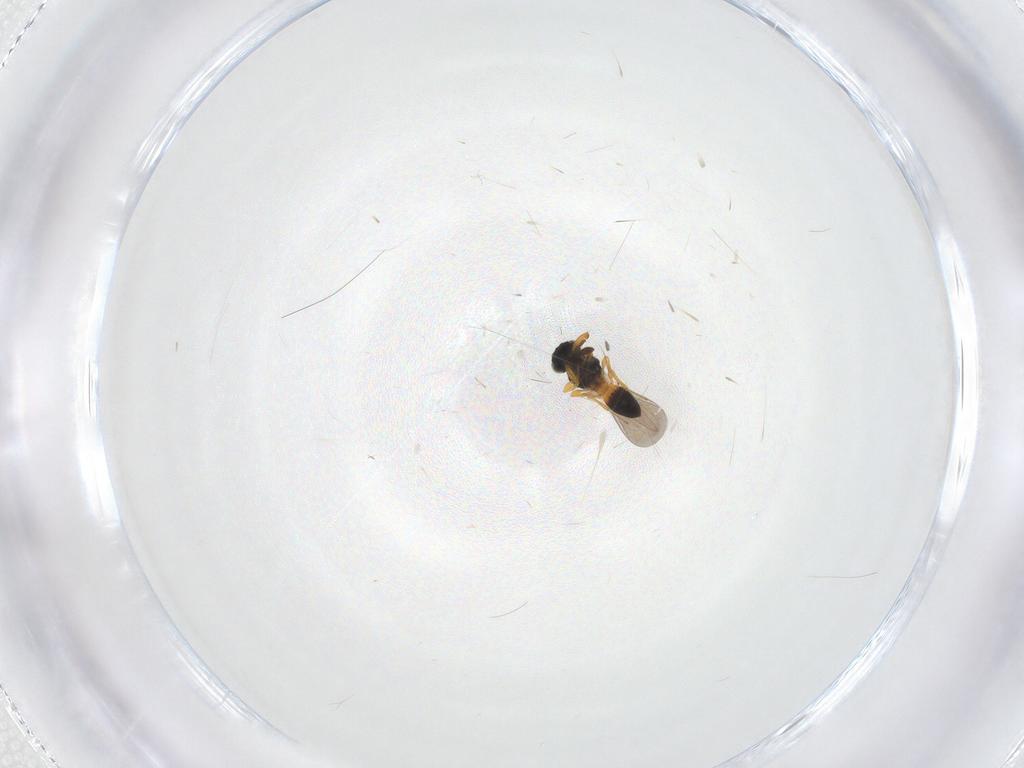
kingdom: Animalia
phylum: Arthropoda
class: Insecta
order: Hymenoptera
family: Platygastridae
